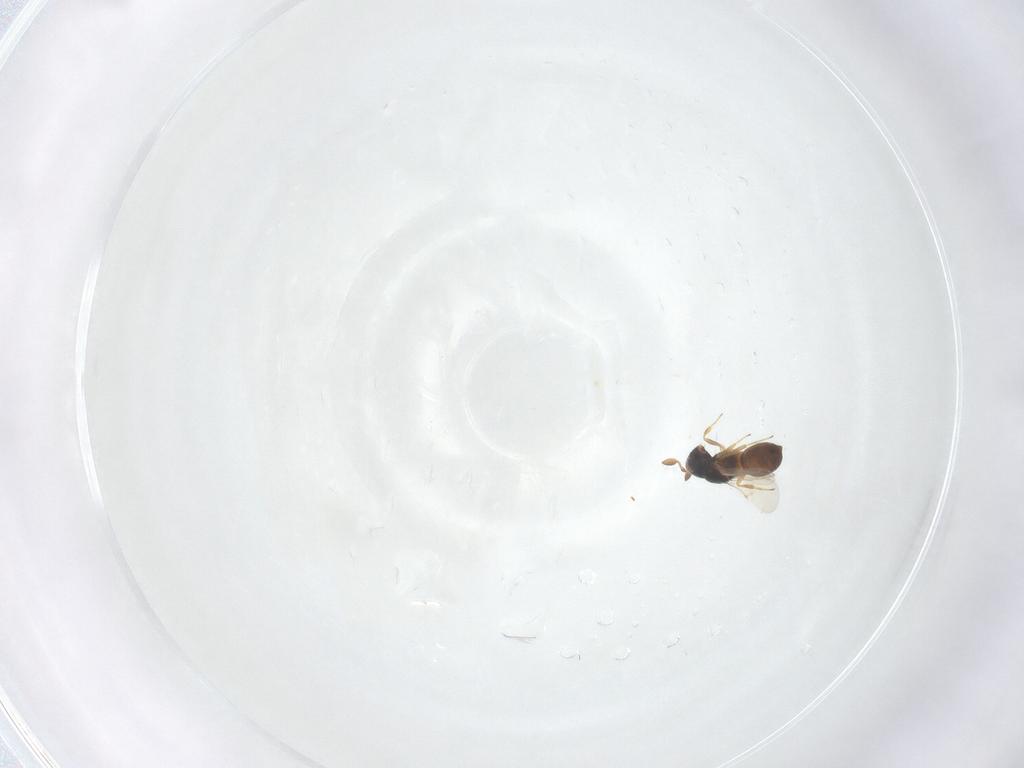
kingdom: Animalia
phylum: Arthropoda
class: Insecta
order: Hymenoptera
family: Scelionidae
